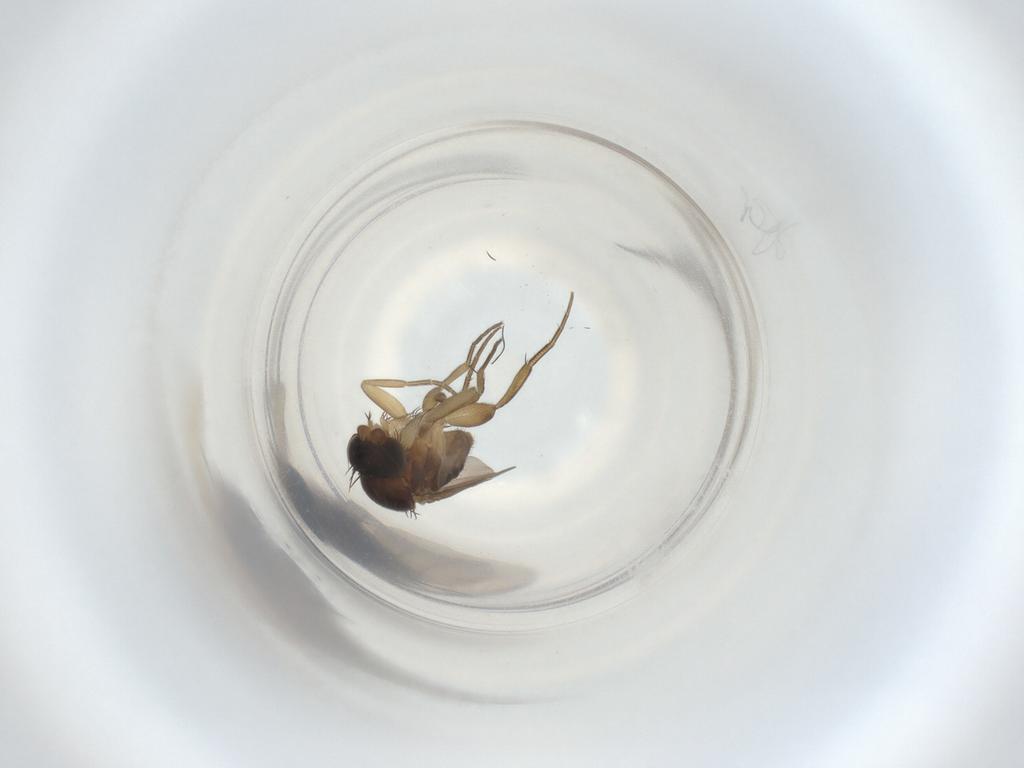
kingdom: Animalia
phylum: Arthropoda
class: Insecta
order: Diptera
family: Phoridae
